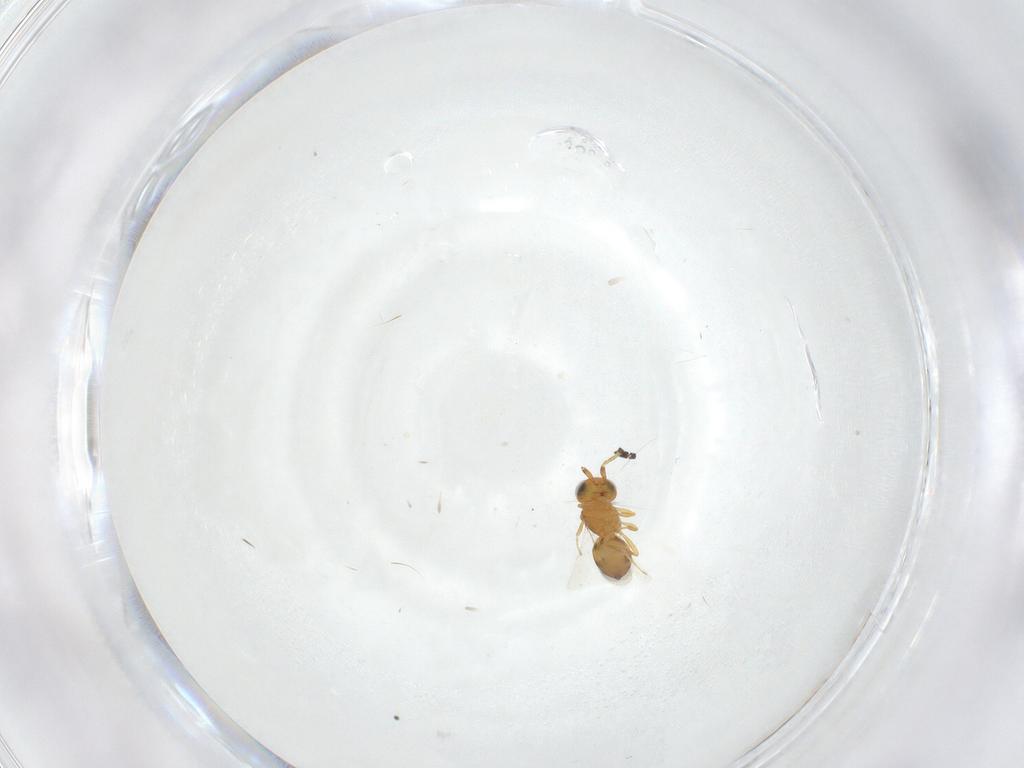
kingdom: Animalia
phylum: Arthropoda
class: Insecta
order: Hymenoptera
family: Scelionidae
